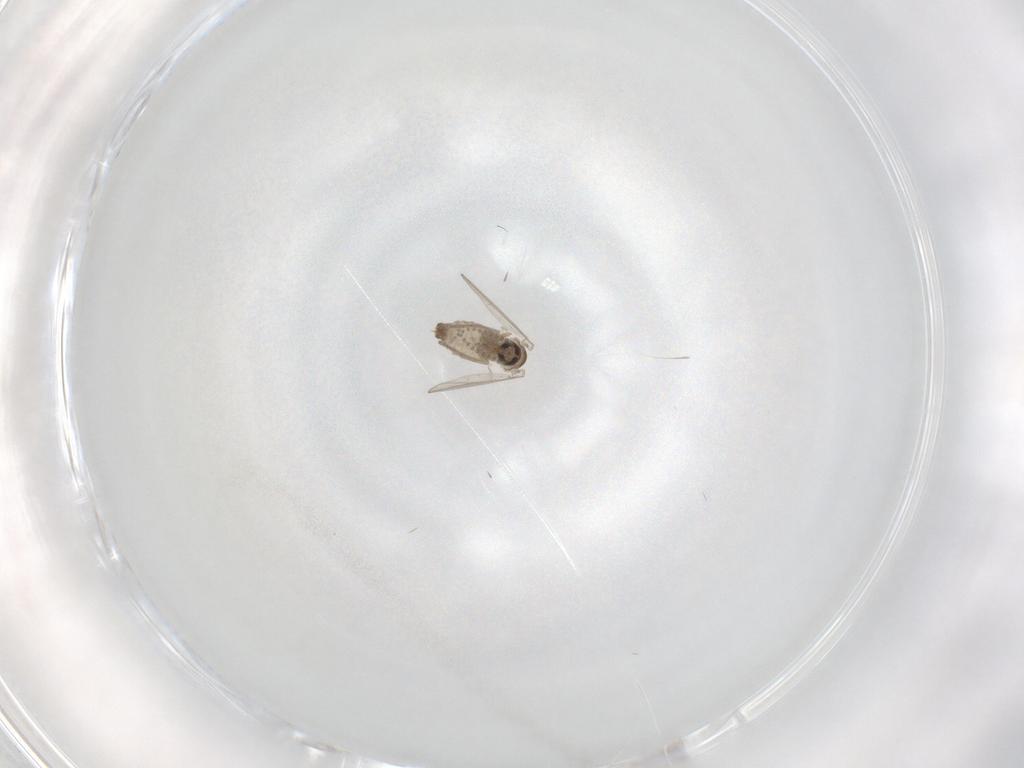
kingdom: Animalia
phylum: Arthropoda
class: Insecta
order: Diptera
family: Psychodidae
